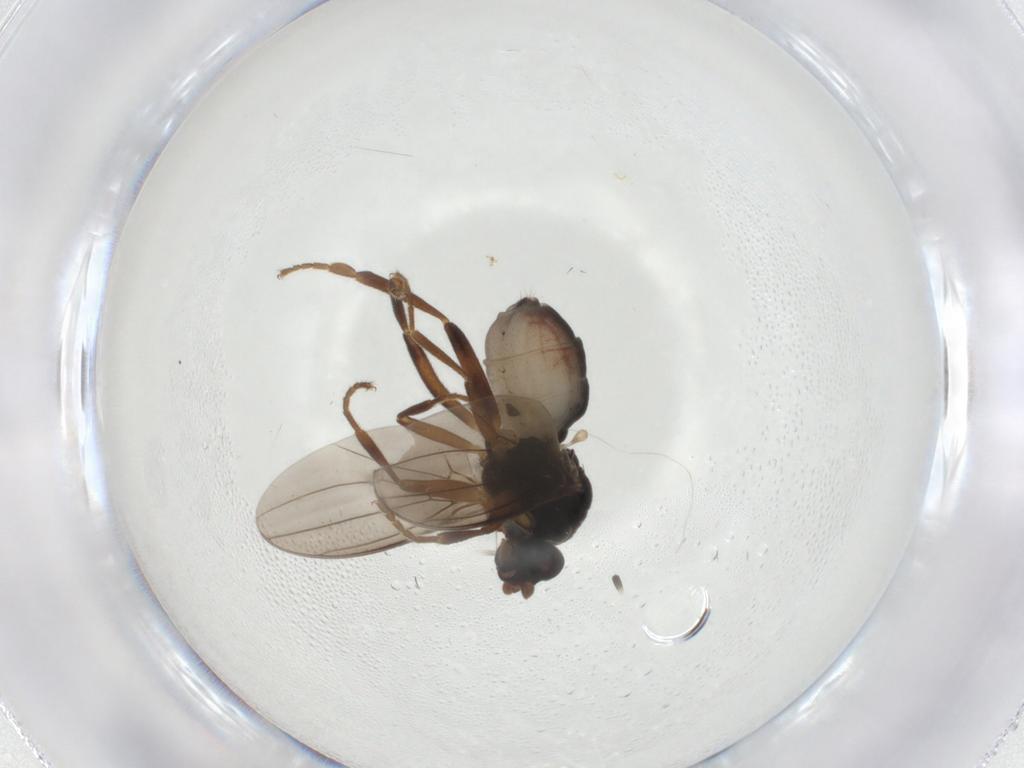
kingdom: Animalia
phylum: Arthropoda
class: Insecta
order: Diptera
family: Sphaeroceridae
